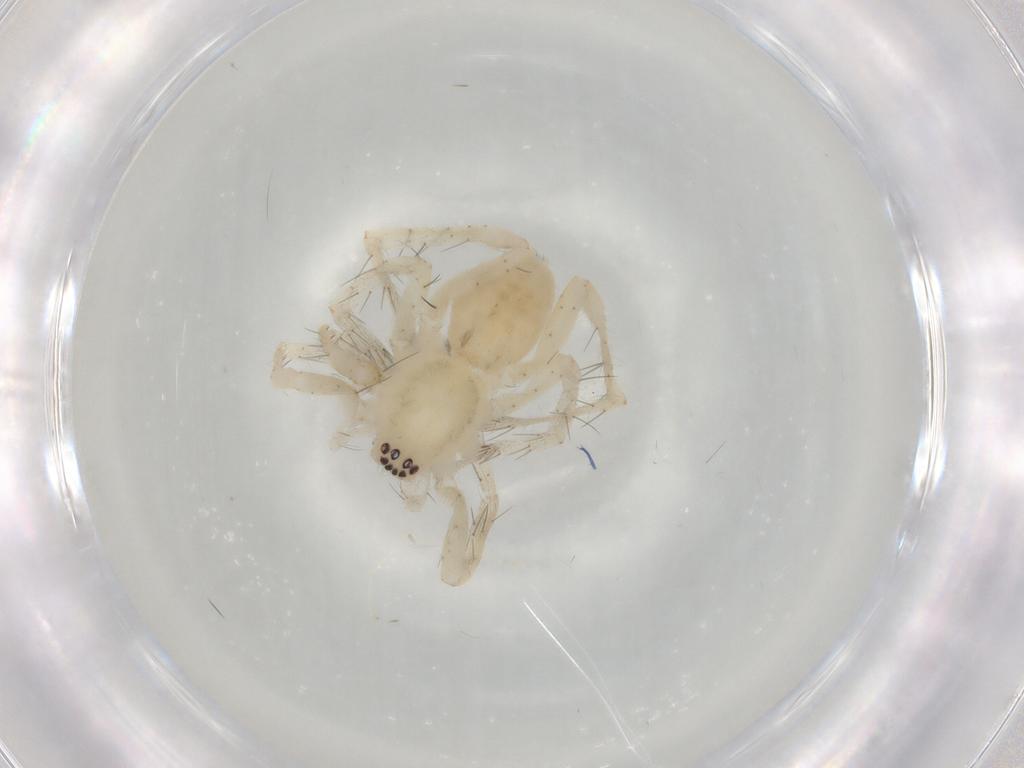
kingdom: Animalia
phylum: Arthropoda
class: Arachnida
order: Araneae
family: Anyphaenidae
